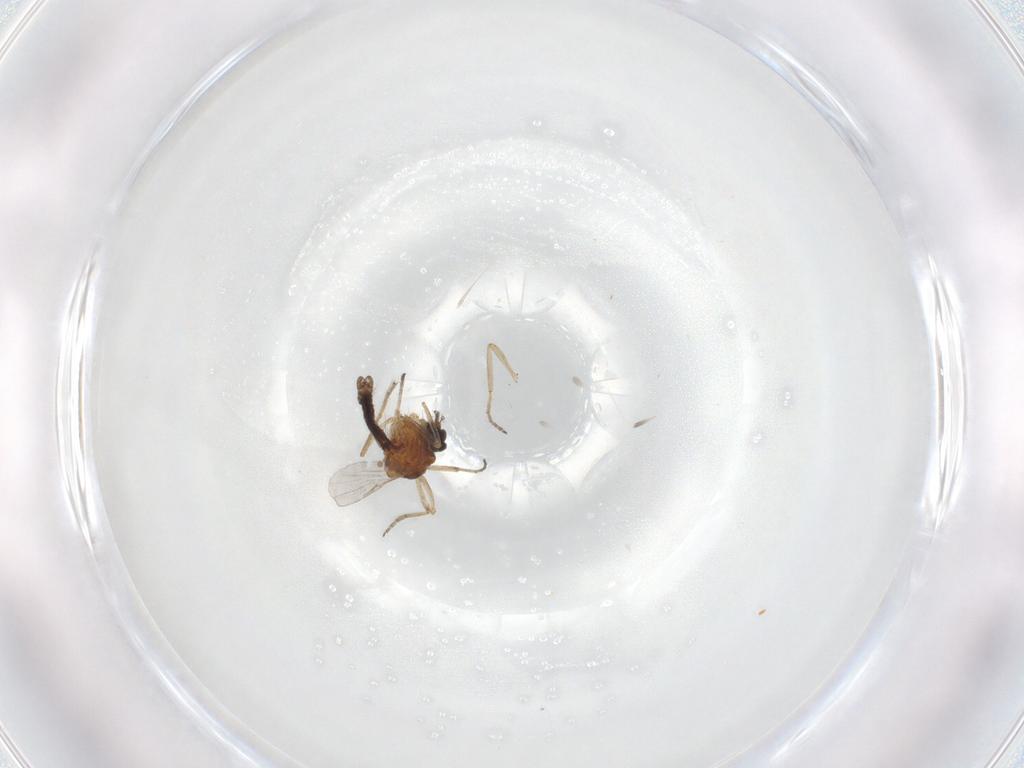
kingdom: Animalia
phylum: Arthropoda
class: Insecta
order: Diptera
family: Ceratopogonidae
